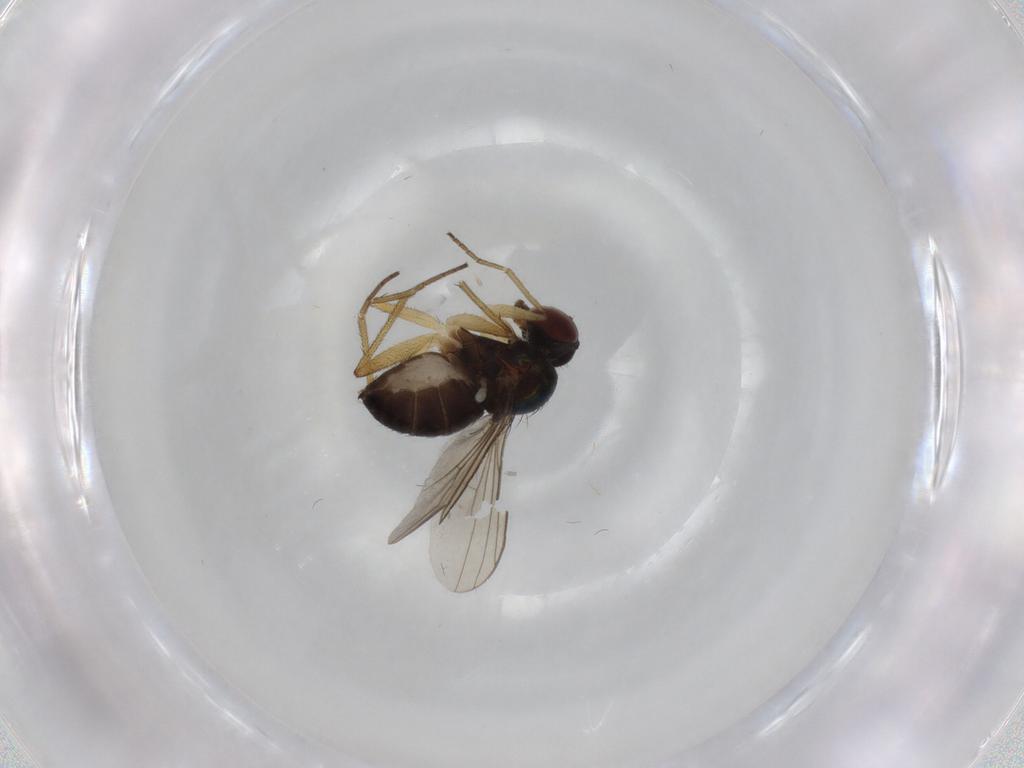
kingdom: Animalia
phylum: Arthropoda
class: Insecta
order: Diptera
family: Dolichopodidae
